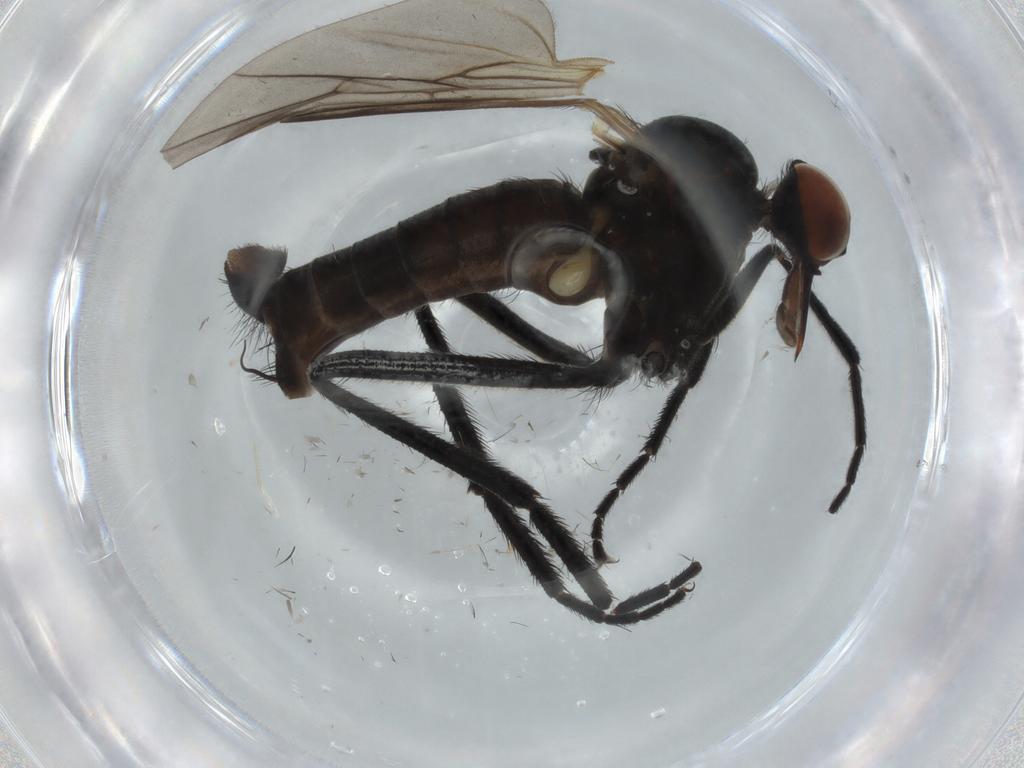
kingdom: Animalia
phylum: Arthropoda
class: Insecta
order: Diptera
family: Empididae
